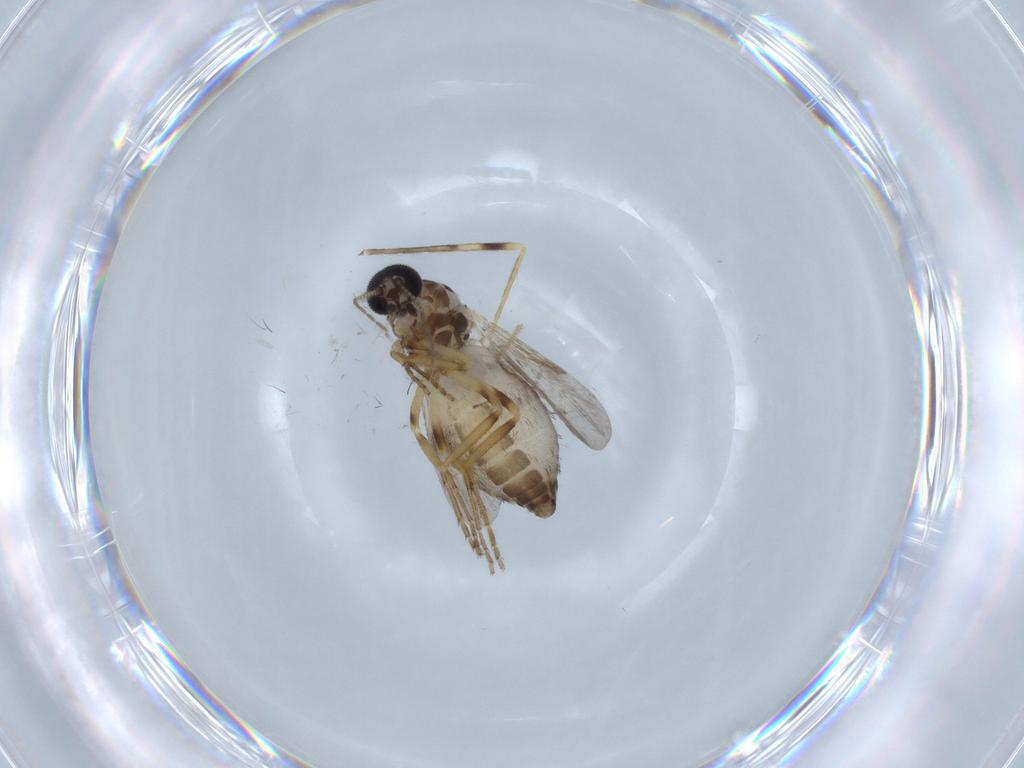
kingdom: Animalia
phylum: Arthropoda
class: Insecta
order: Diptera
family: Ceratopogonidae
